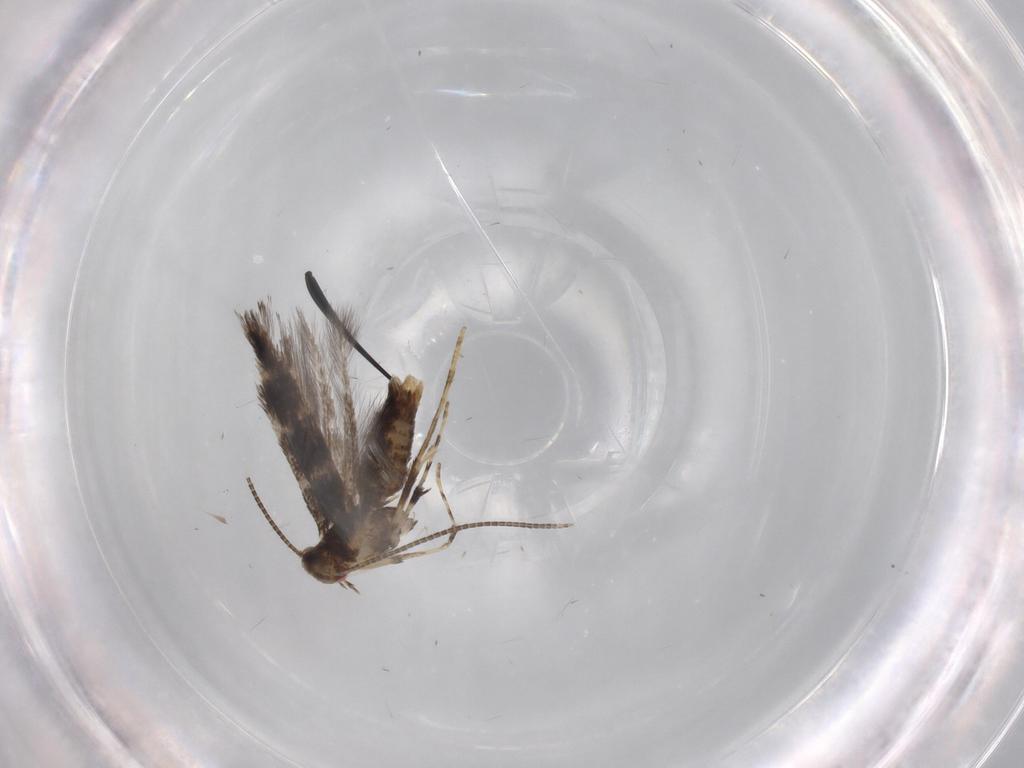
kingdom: Animalia
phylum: Arthropoda
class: Insecta
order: Lepidoptera
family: Gracillariidae
